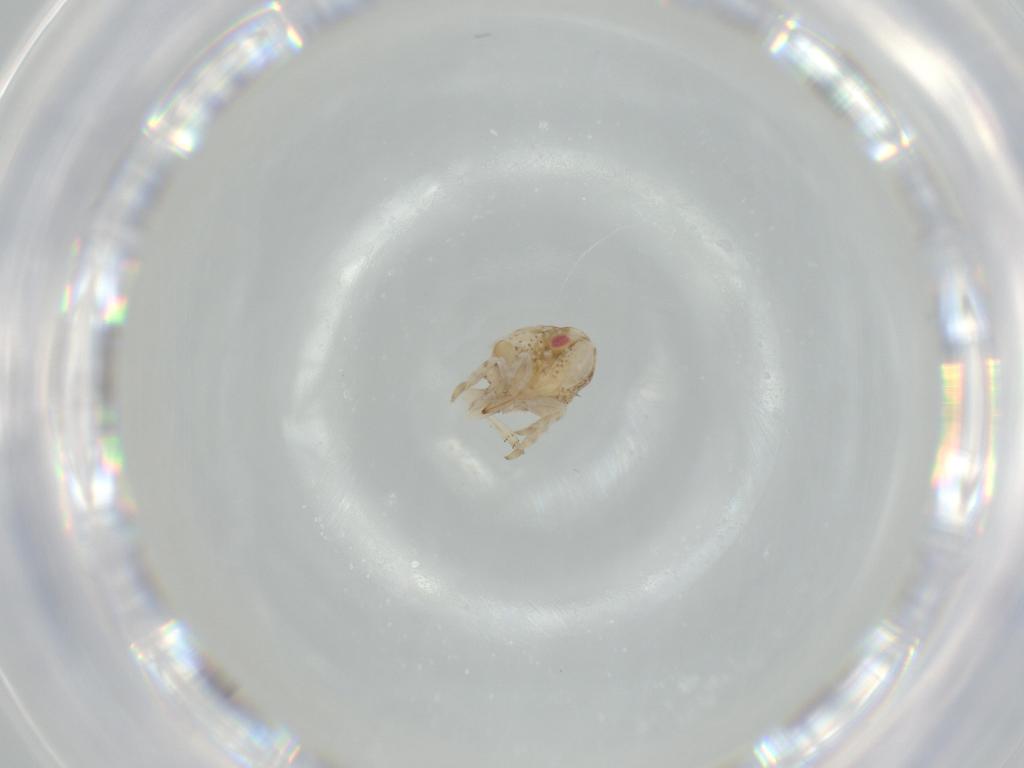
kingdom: Animalia
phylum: Arthropoda
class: Insecta
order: Hemiptera
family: Acanaloniidae
